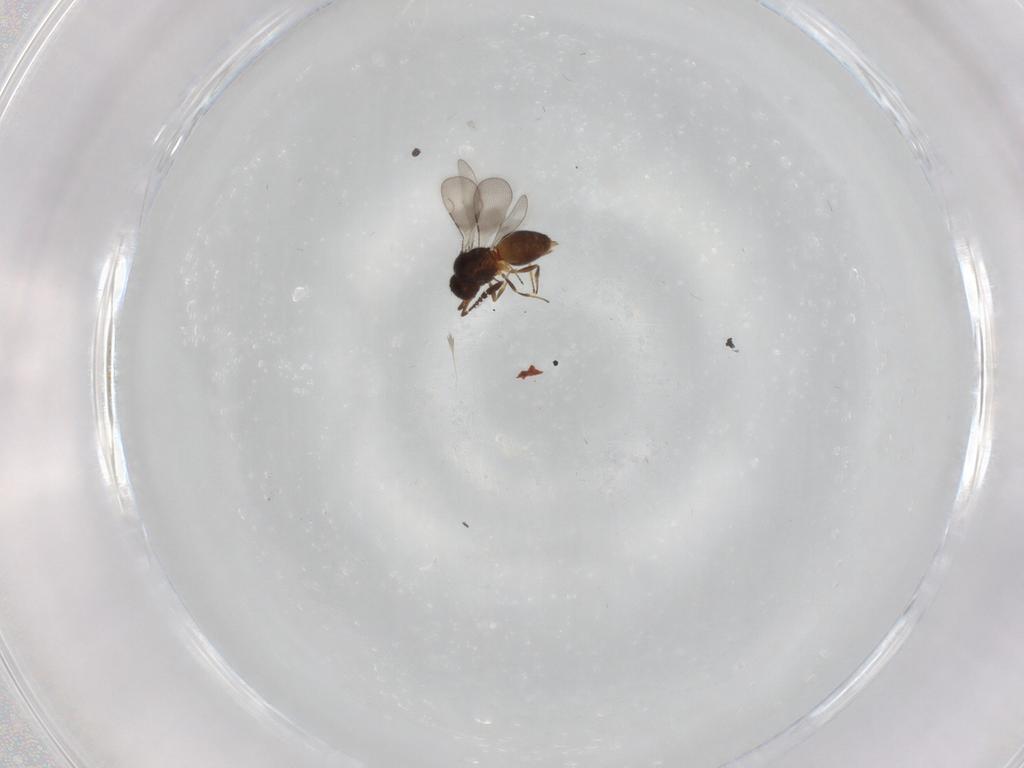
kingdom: Animalia
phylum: Arthropoda
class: Insecta
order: Hymenoptera
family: Ceraphronidae
